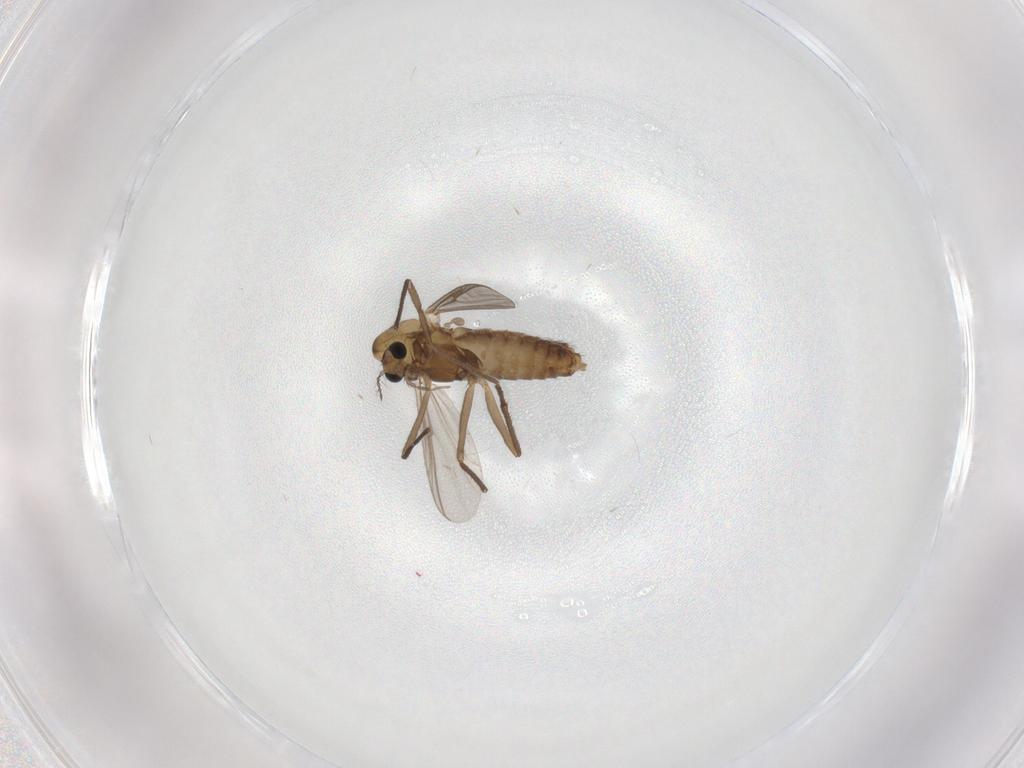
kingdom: Animalia
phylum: Arthropoda
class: Insecta
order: Diptera
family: Chironomidae
